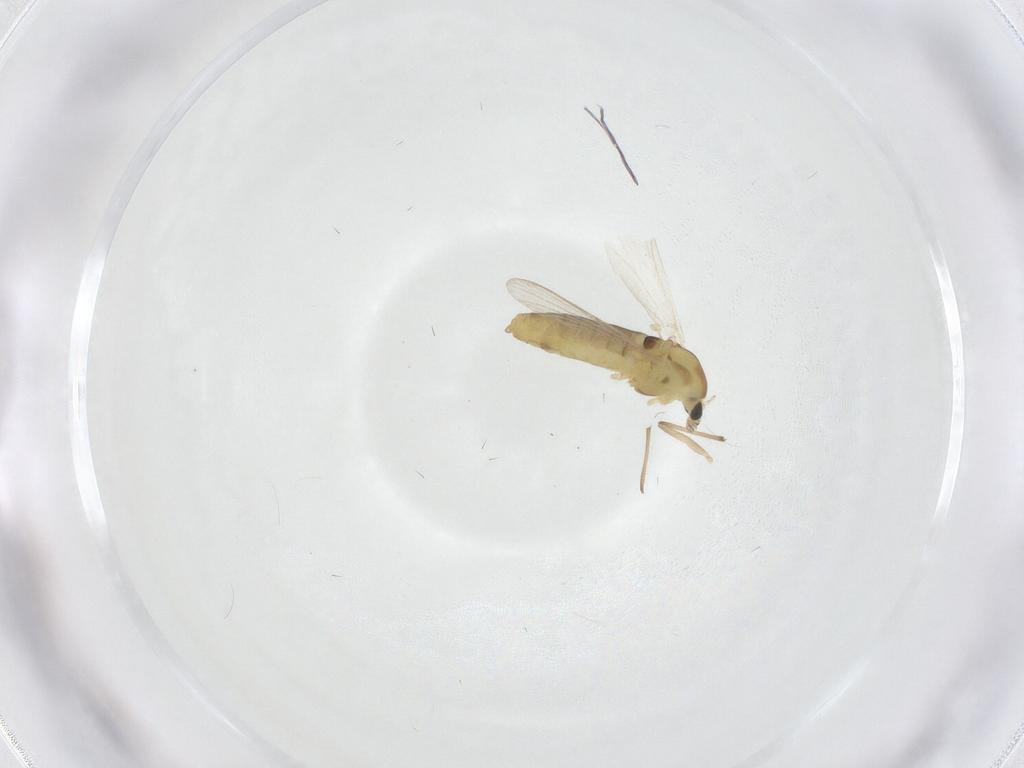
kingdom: Animalia
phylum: Arthropoda
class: Insecta
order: Diptera
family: Chironomidae
